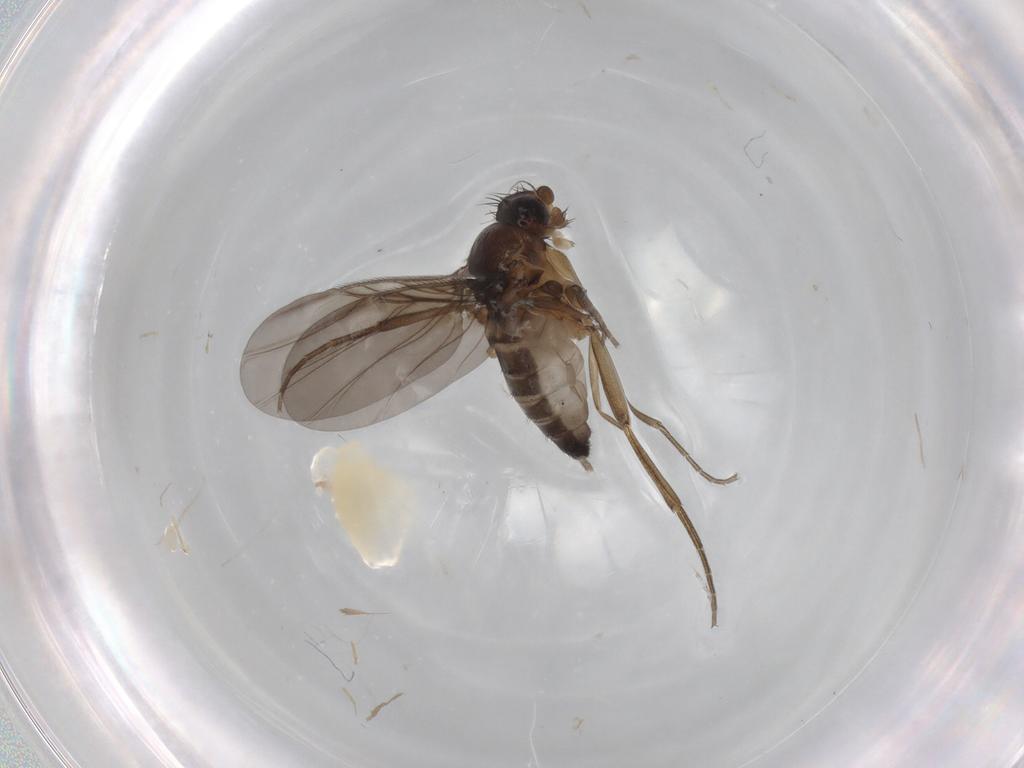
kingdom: Animalia
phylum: Arthropoda
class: Insecta
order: Diptera
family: Phoridae
